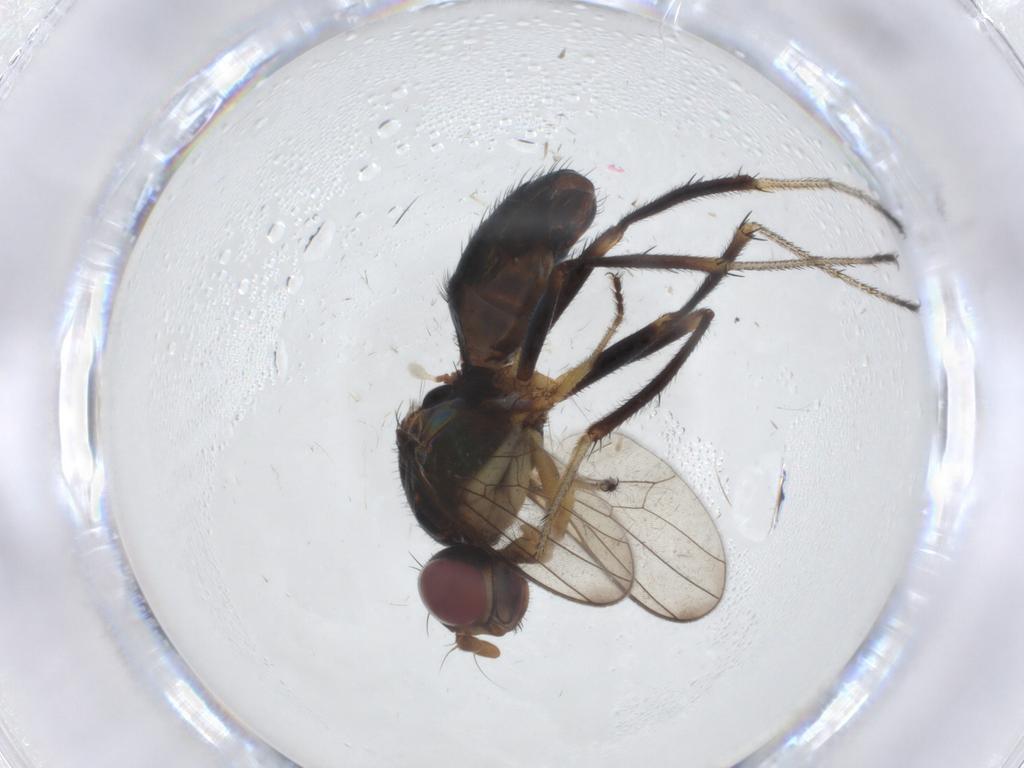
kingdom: Animalia
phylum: Arthropoda
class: Insecta
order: Diptera
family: Sepsidae
